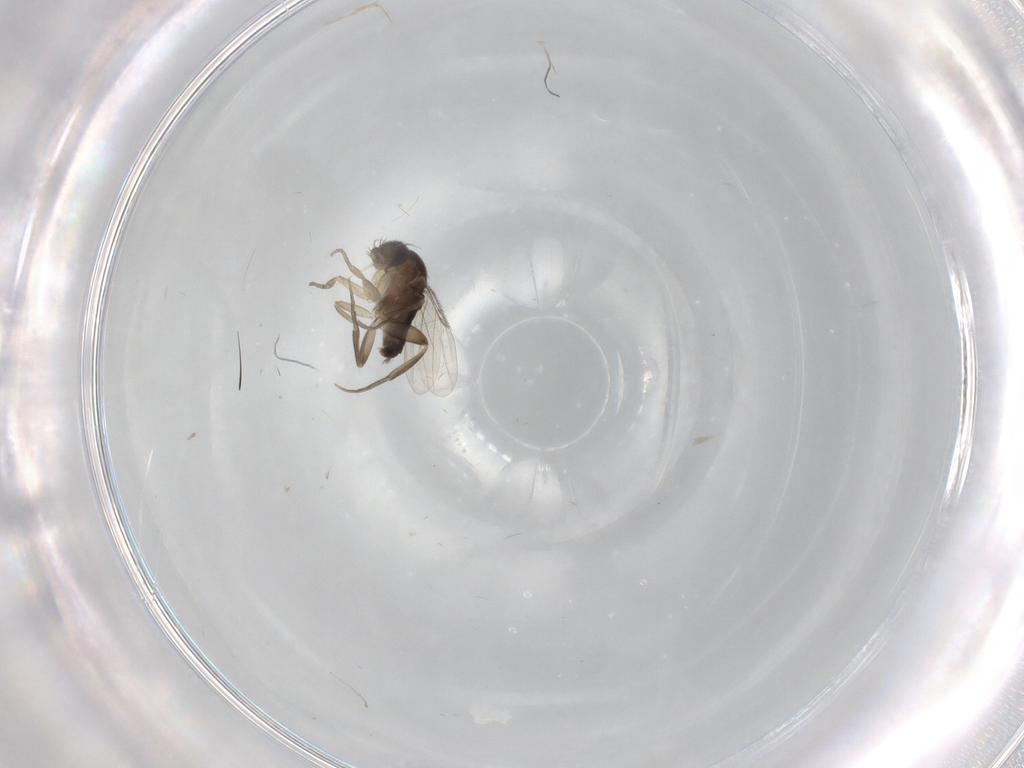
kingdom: Animalia
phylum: Arthropoda
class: Insecta
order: Diptera
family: Phoridae
